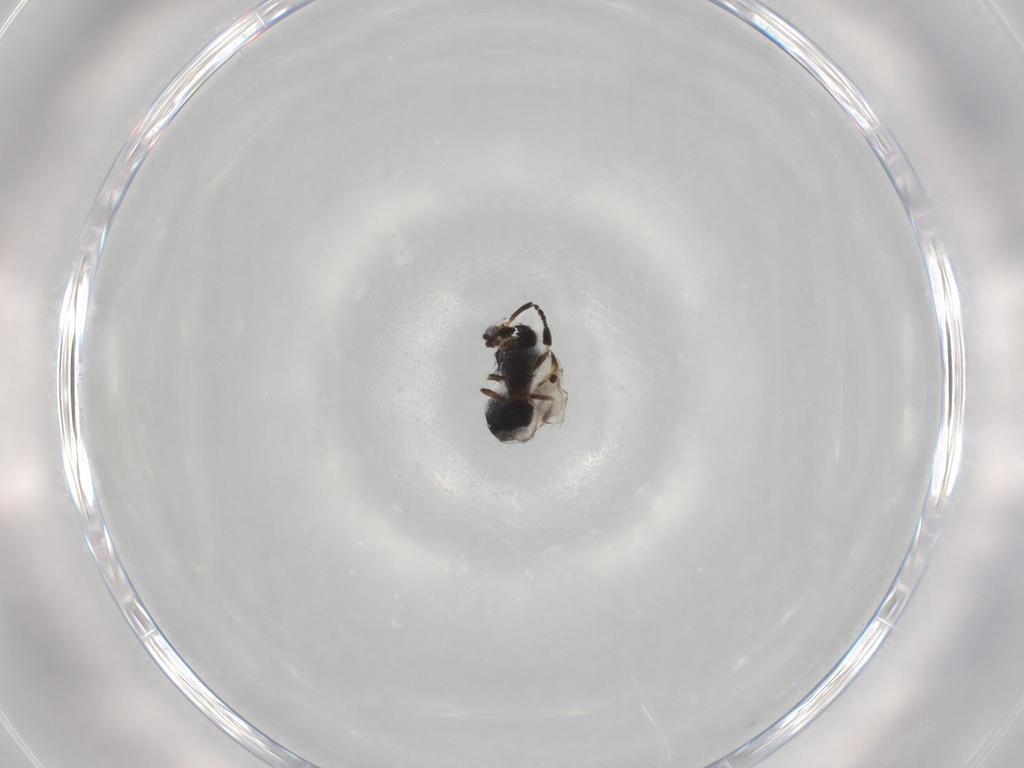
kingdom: Animalia
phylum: Arthropoda
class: Insecta
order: Hymenoptera
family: Scelionidae
